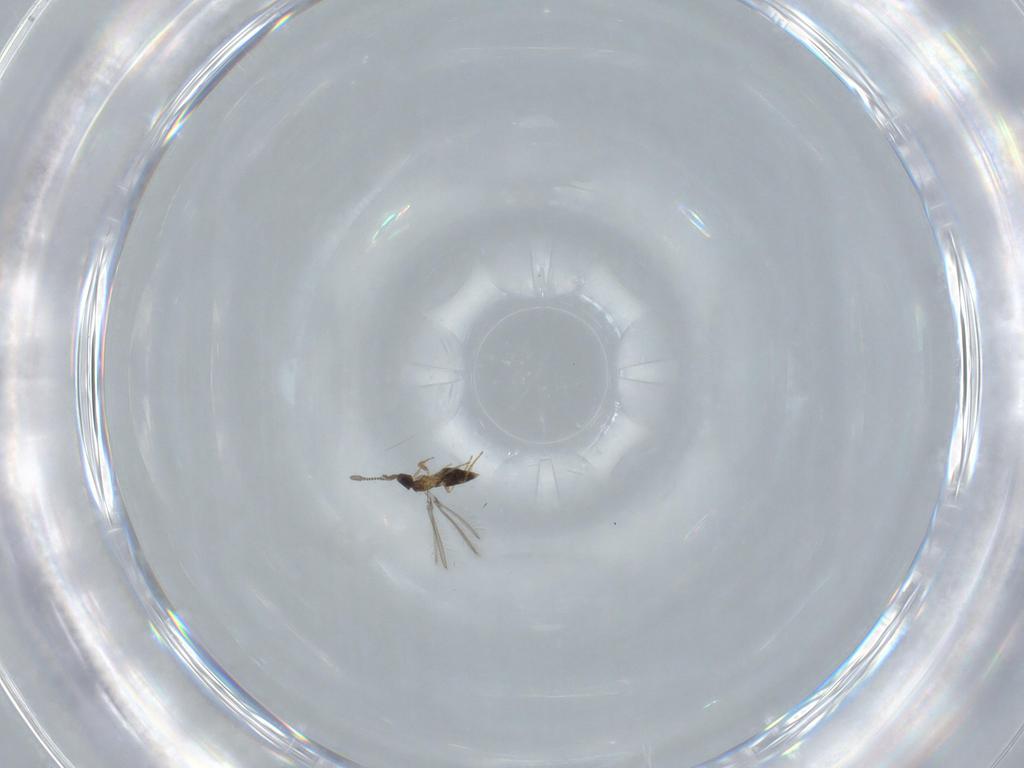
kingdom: Animalia
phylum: Arthropoda
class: Insecta
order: Hymenoptera
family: Mymaridae
